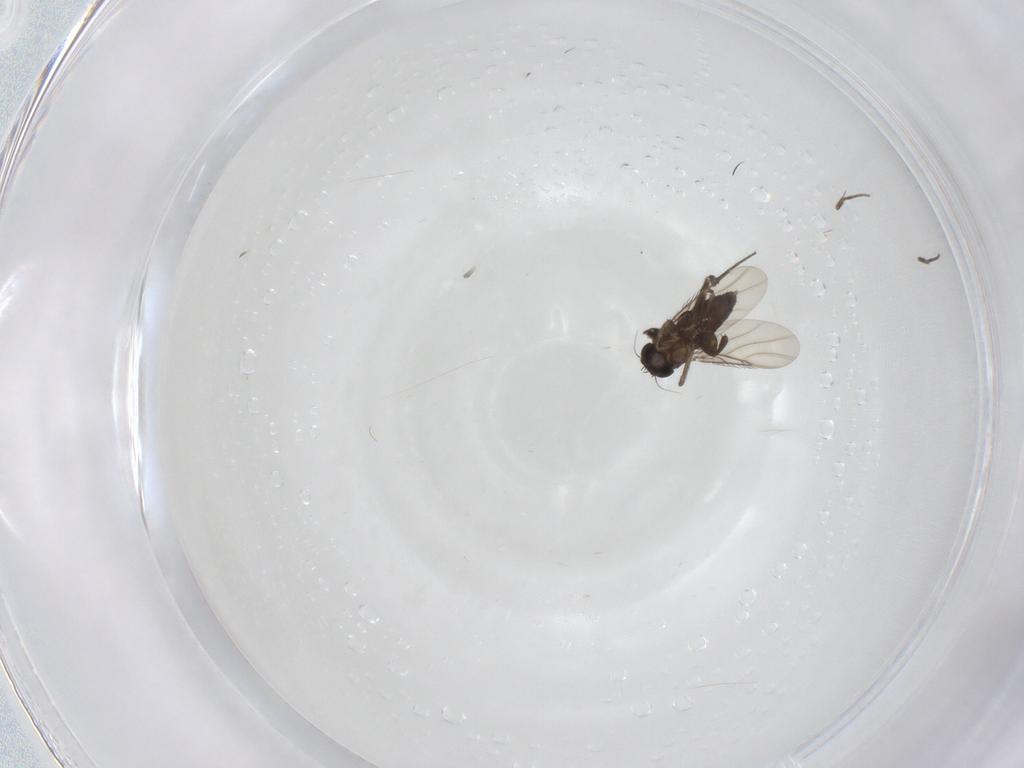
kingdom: Animalia
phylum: Arthropoda
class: Insecta
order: Diptera
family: Phoridae
